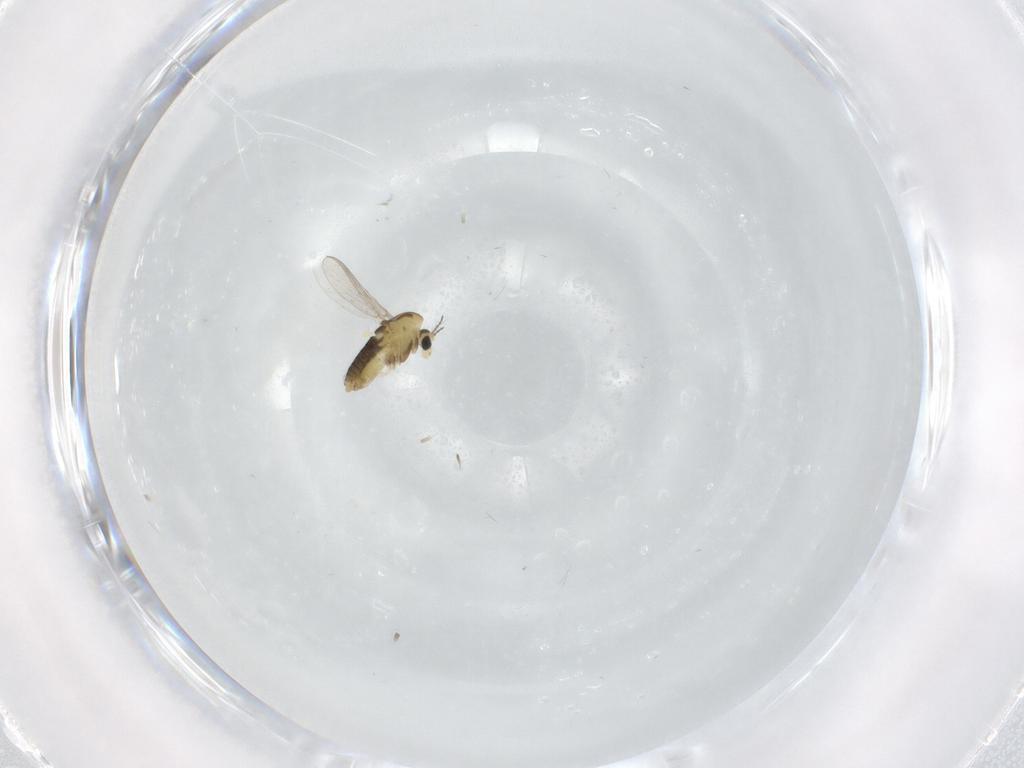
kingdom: Animalia
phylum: Arthropoda
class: Insecta
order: Diptera
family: Chironomidae
